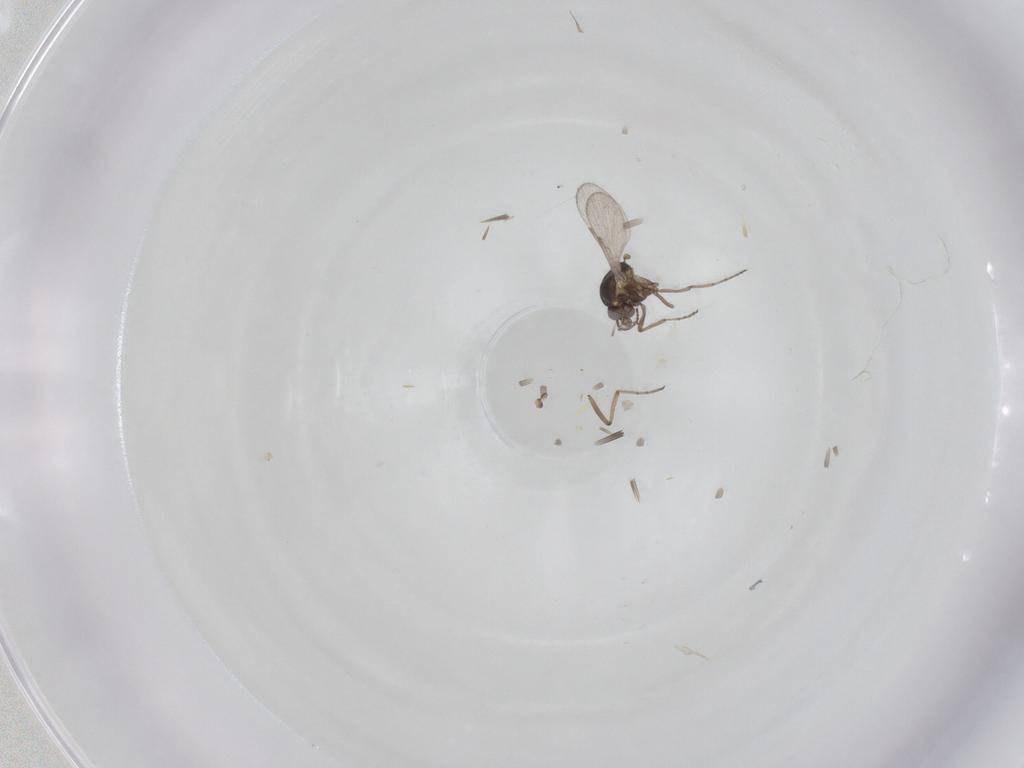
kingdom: Animalia
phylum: Arthropoda
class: Insecta
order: Diptera
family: Ceratopogonidae
